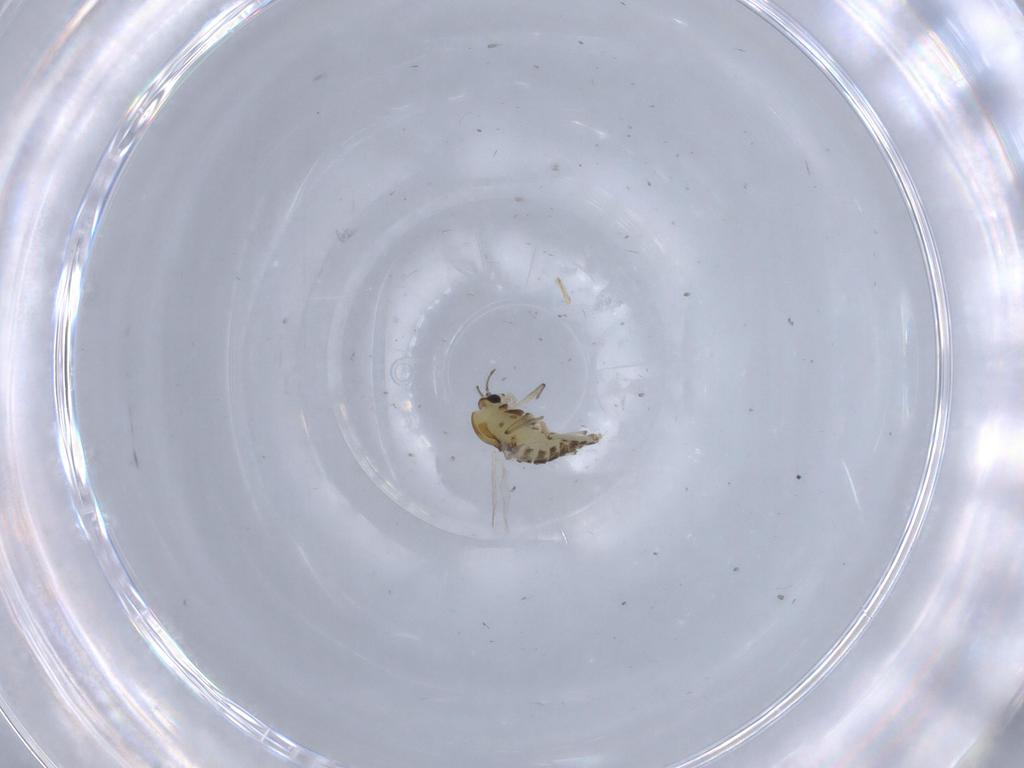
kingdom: Animalia
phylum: Arthropoda
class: Insecta
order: Diptera
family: Chironomidae
